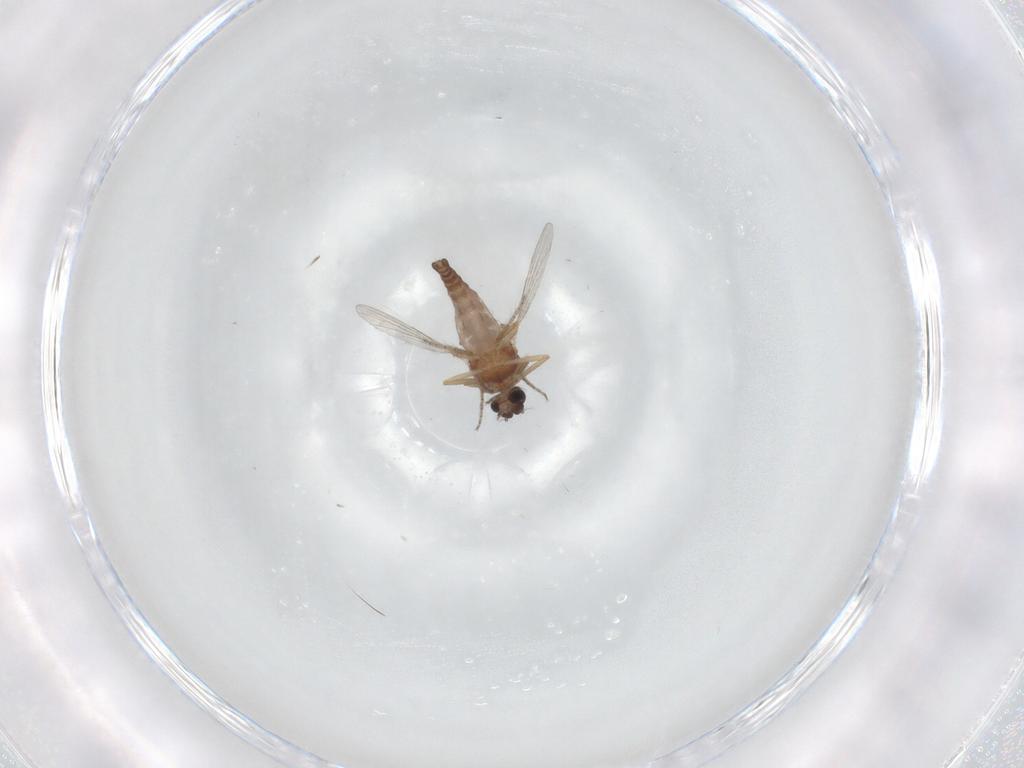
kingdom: Animalia
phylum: Arthropoda
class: Insecta
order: Diptera
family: Ceratopogonidae
